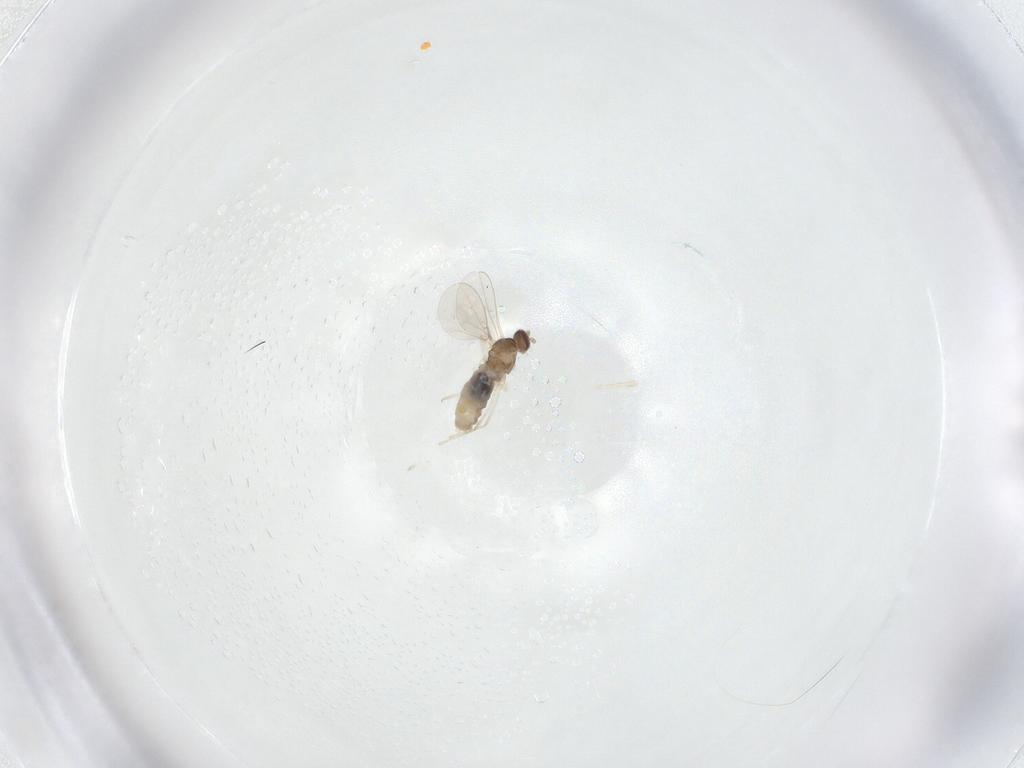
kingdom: Animalia
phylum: Arthropoda
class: Insecta
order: Diptera
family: Cecidomyiidae
